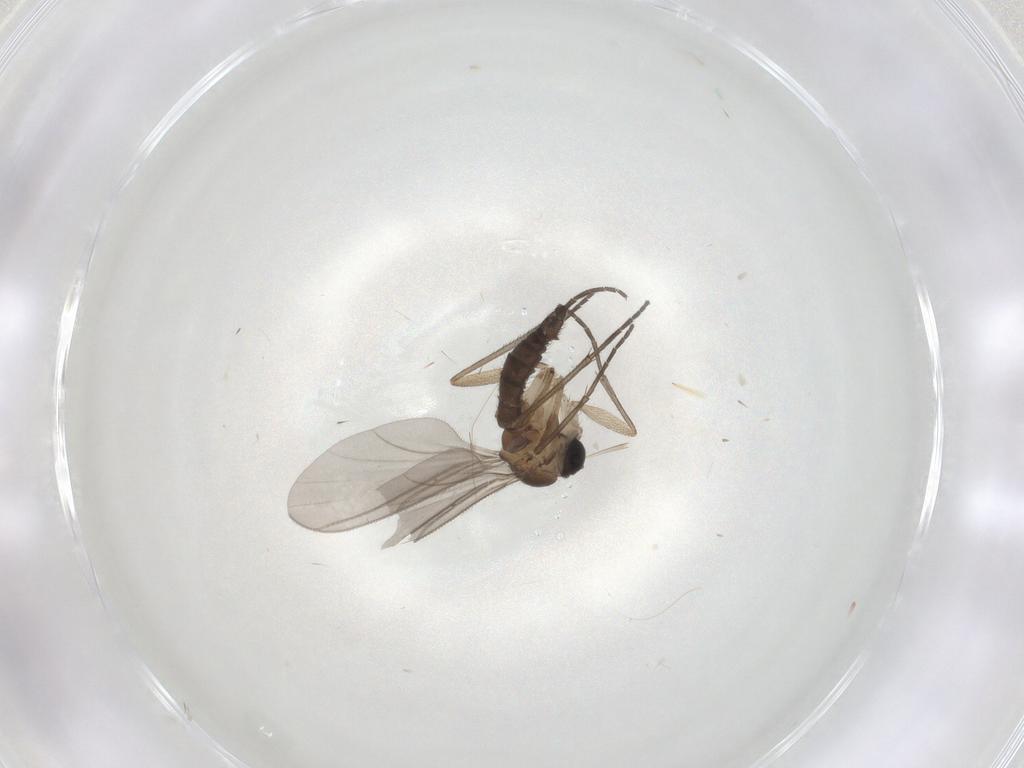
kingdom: Animalia
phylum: Arthropoda
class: Insecta
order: Diptera
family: Sciaridae
